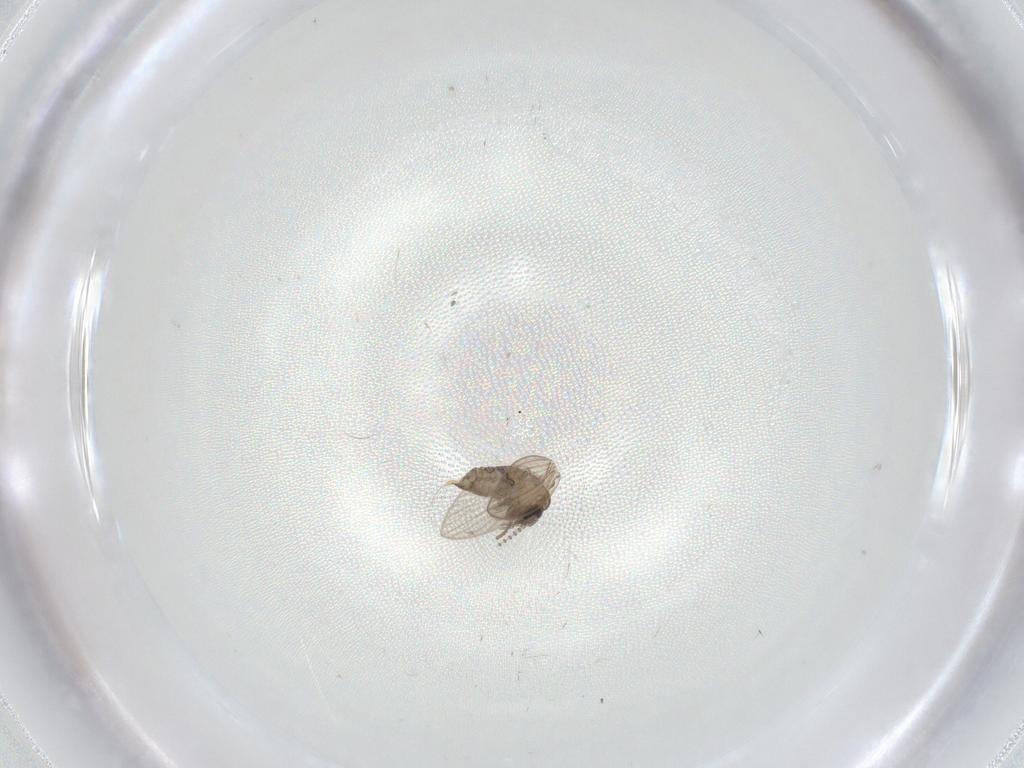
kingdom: Animalia
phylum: Arthropoda
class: Insecta
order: Diptera
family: Psychodidae
